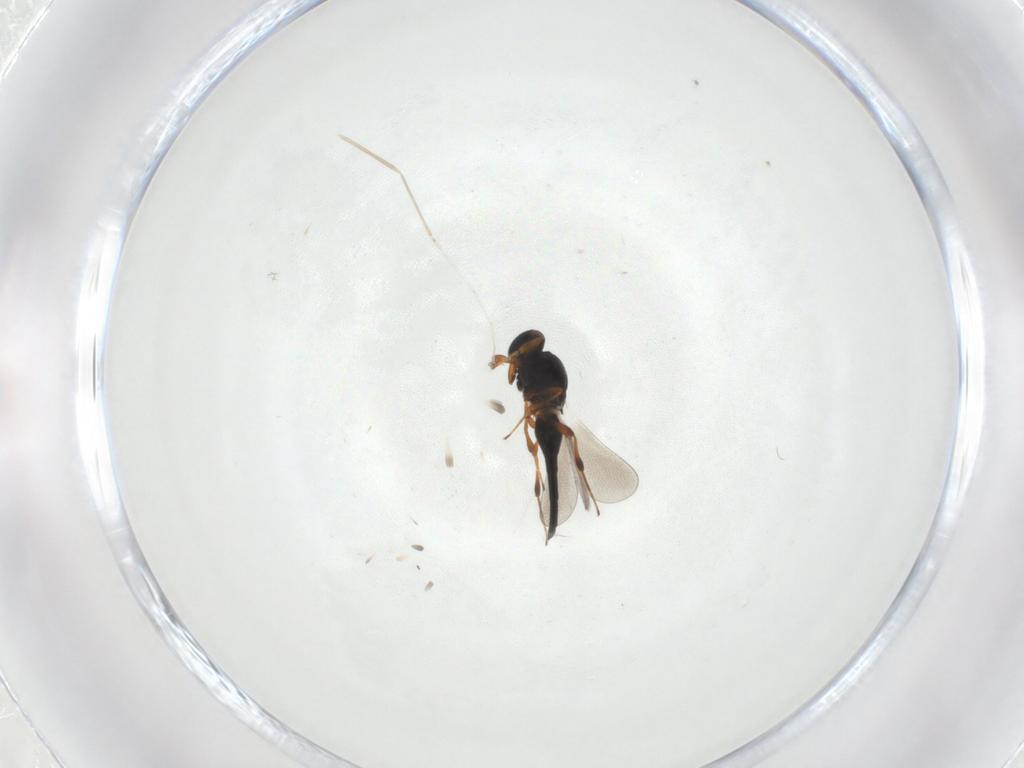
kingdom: Animalia
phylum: Arthropoda
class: Insecta
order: Hymenoptera
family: Platygastridae
